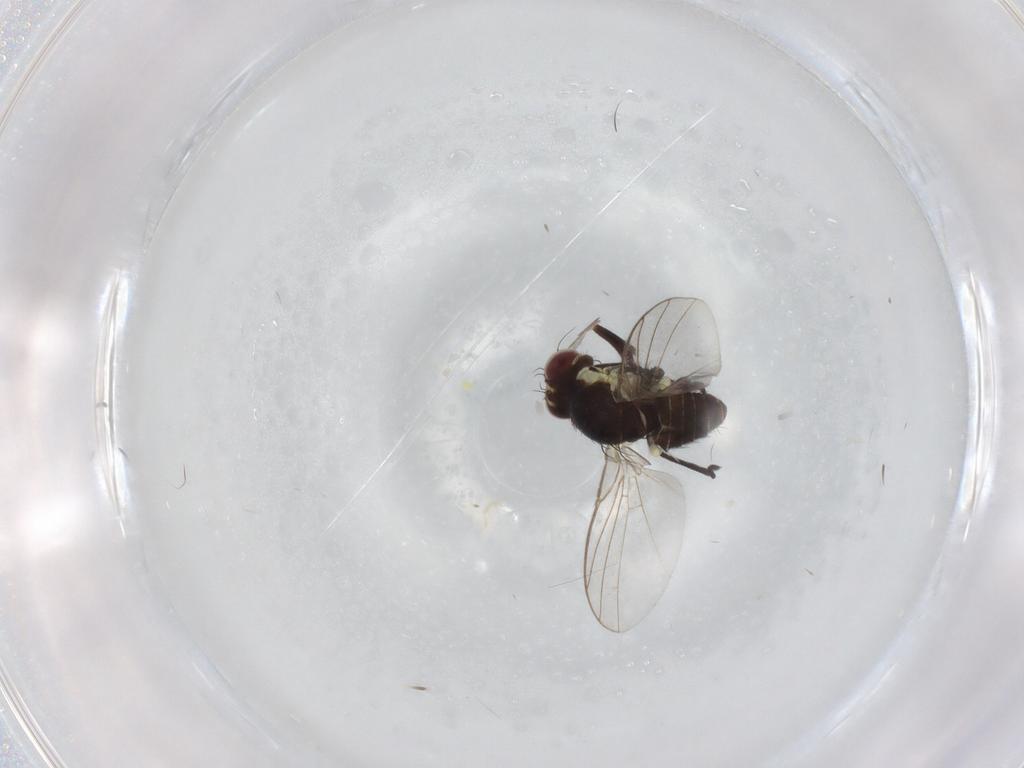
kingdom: Animalia
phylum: Arthropoda
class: Insecta
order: Diptera
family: Agromyzidae
